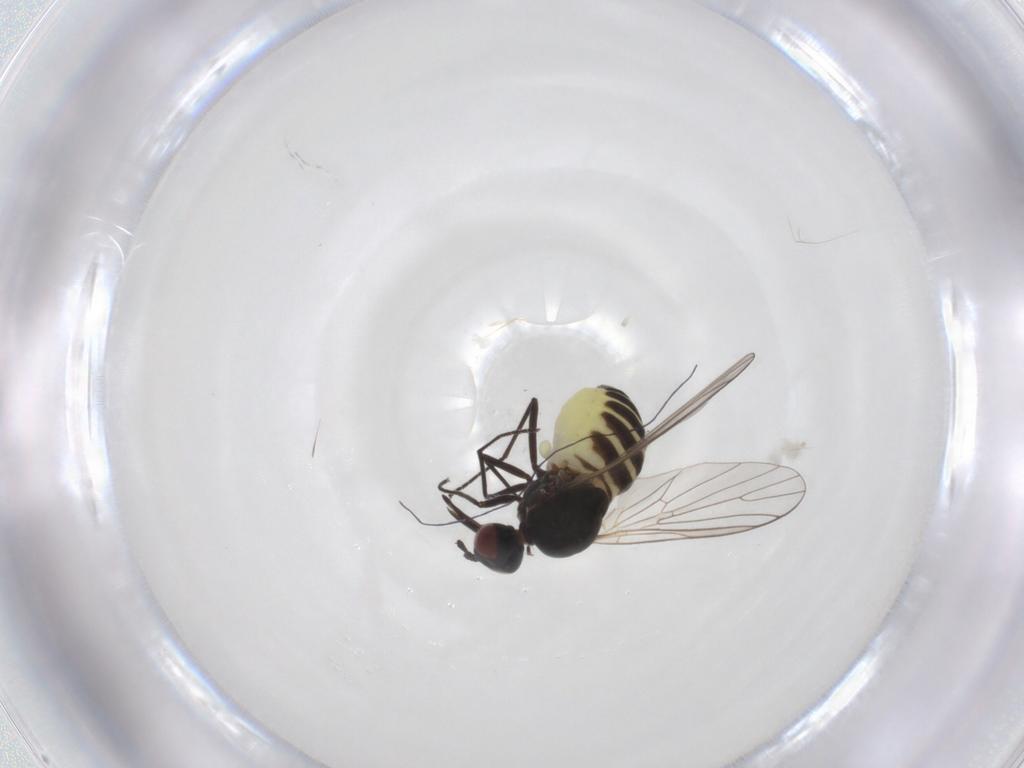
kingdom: Animalia
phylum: Arthropoda
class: Insecta
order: Diptera
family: Bombyliidae
